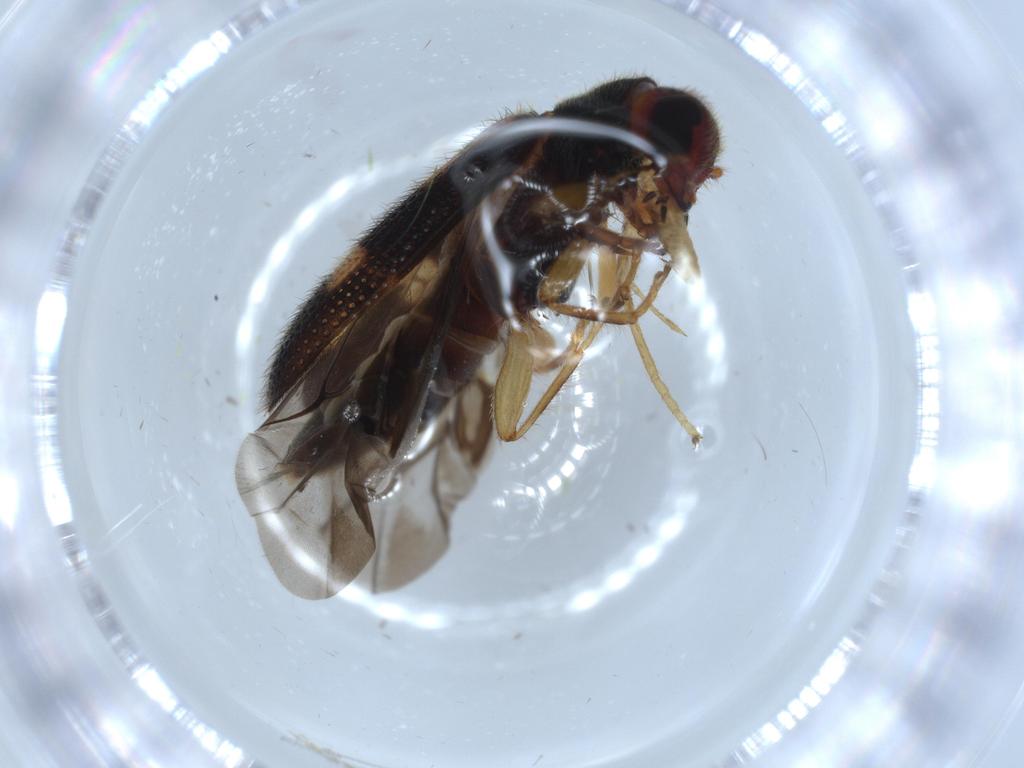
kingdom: Animalia
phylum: Arthropoda
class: Insecta
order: Coleoptera
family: Cleridae
